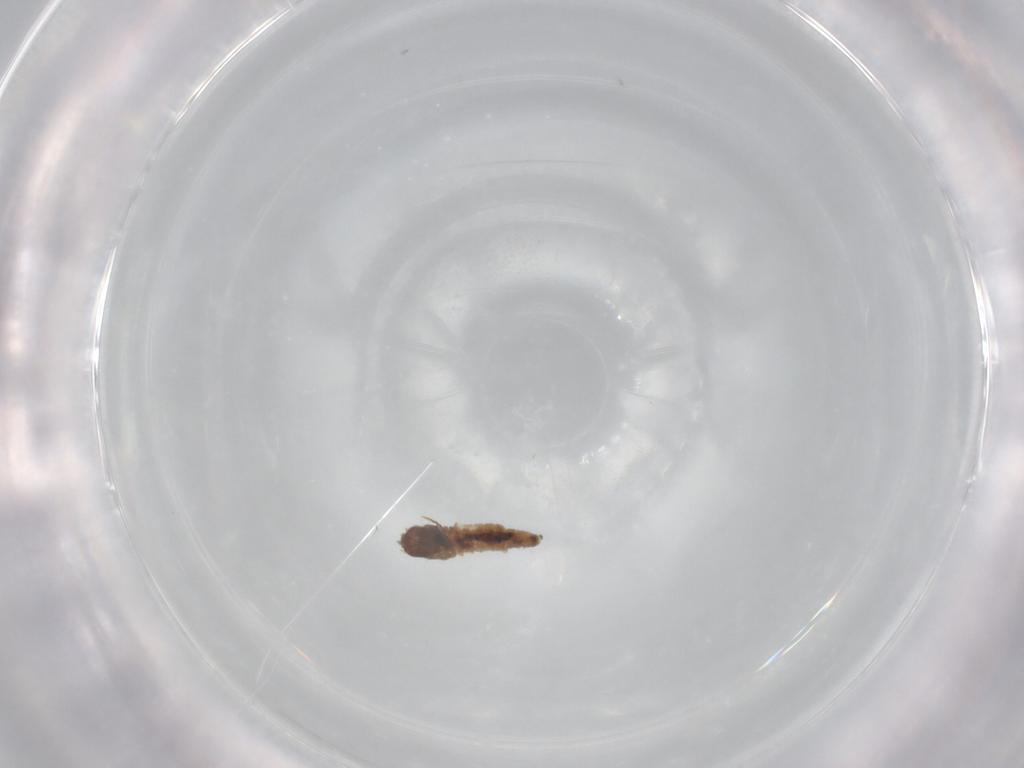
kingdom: Animalia
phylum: Arthropoda
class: Insecta
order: Lepidoptera
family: Psychidae
